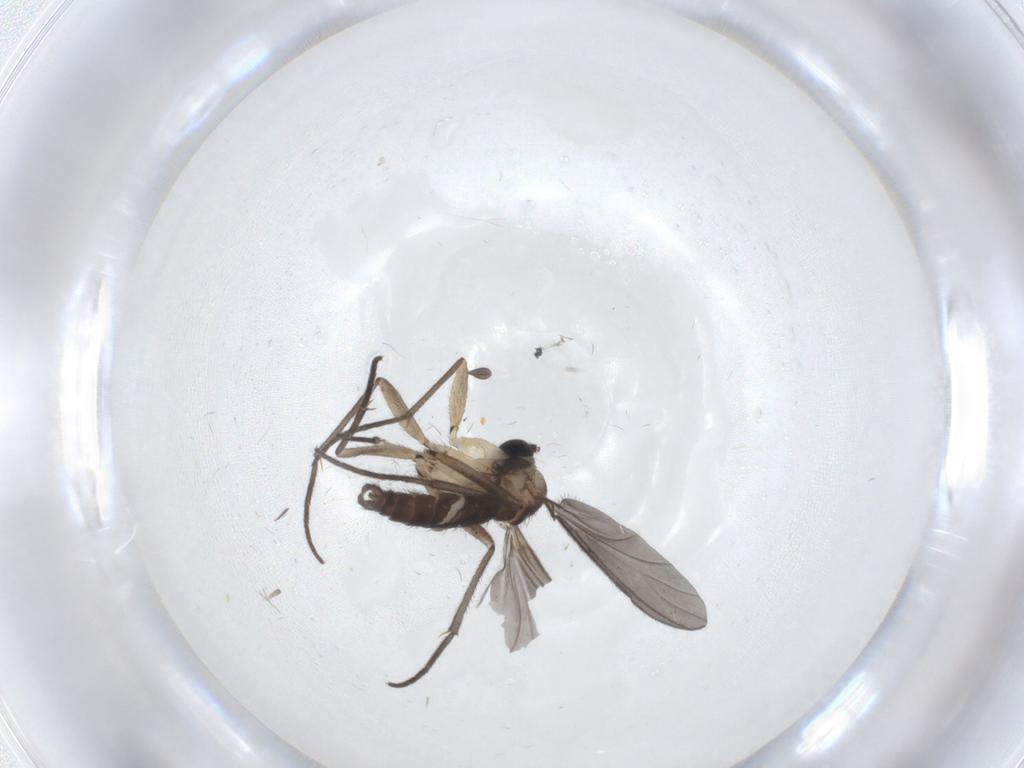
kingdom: Animalia
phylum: Arthropoda
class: Insecta
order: Diptera
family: Sciaridae
